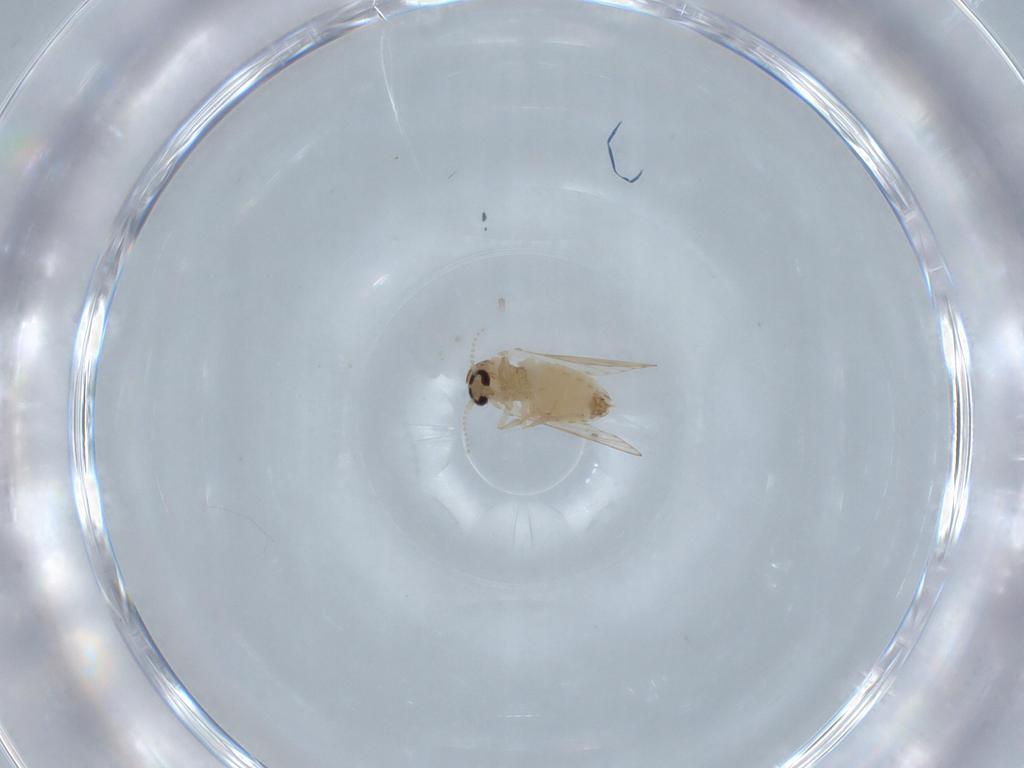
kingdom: Animalia
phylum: Arthropoda
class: Insecta
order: Diptera
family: Psychodidae
